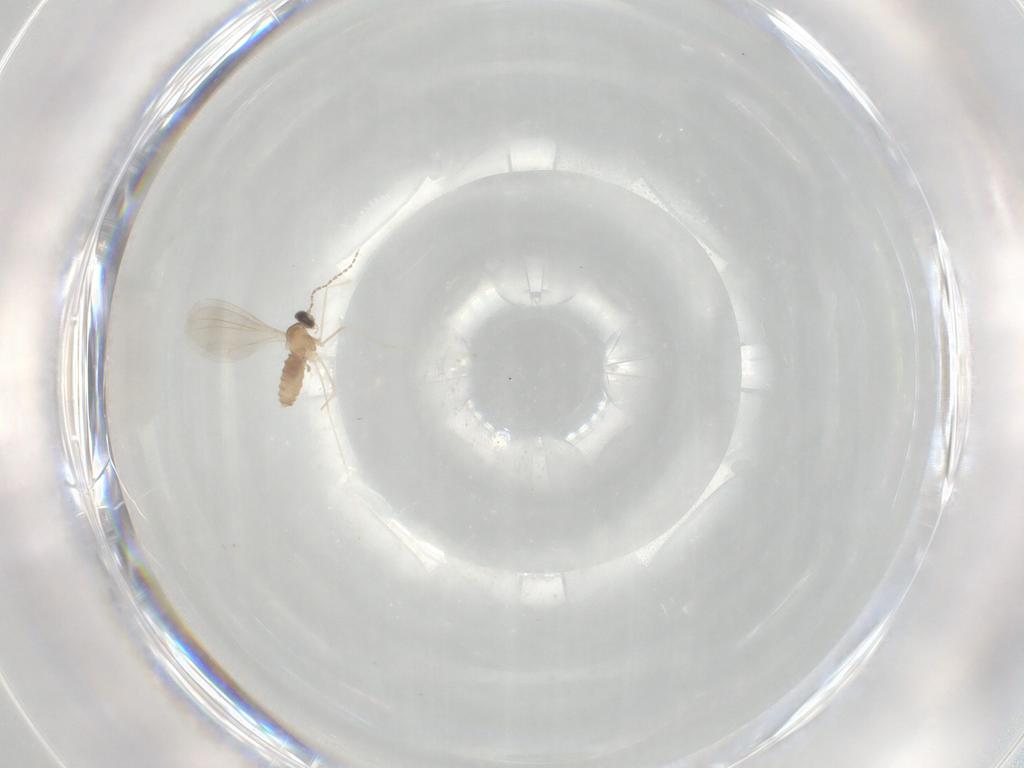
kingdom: Animalia
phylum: Arthropoda
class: Insecta
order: Diptera
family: Cecidomyiidae
